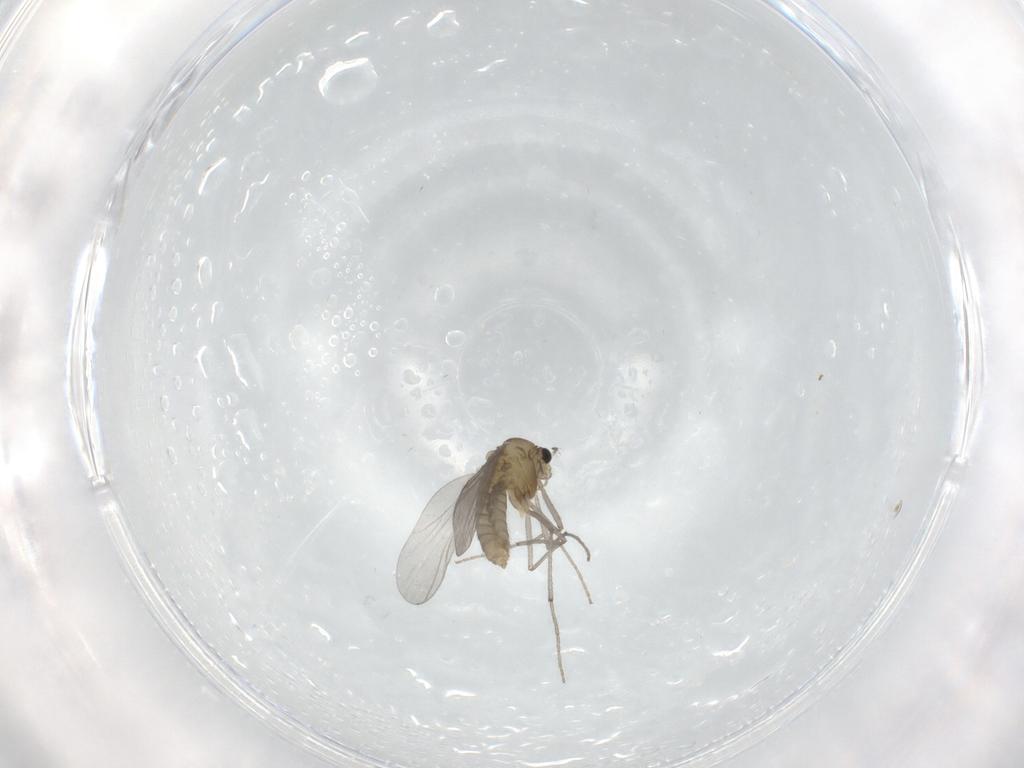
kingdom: Animalia
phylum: Arthropoda
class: Insecta
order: Diptera
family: Chironomidae
